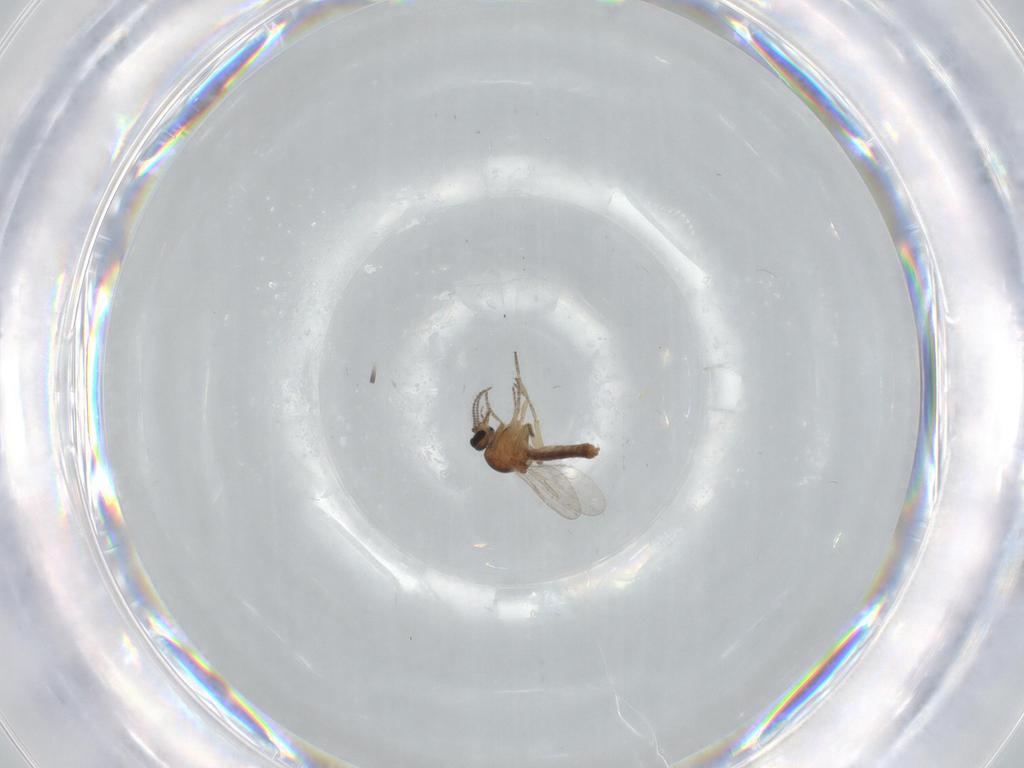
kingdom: Animalia
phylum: Arthropoda
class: Insecta
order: Diptera
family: Ceratopogonidae
